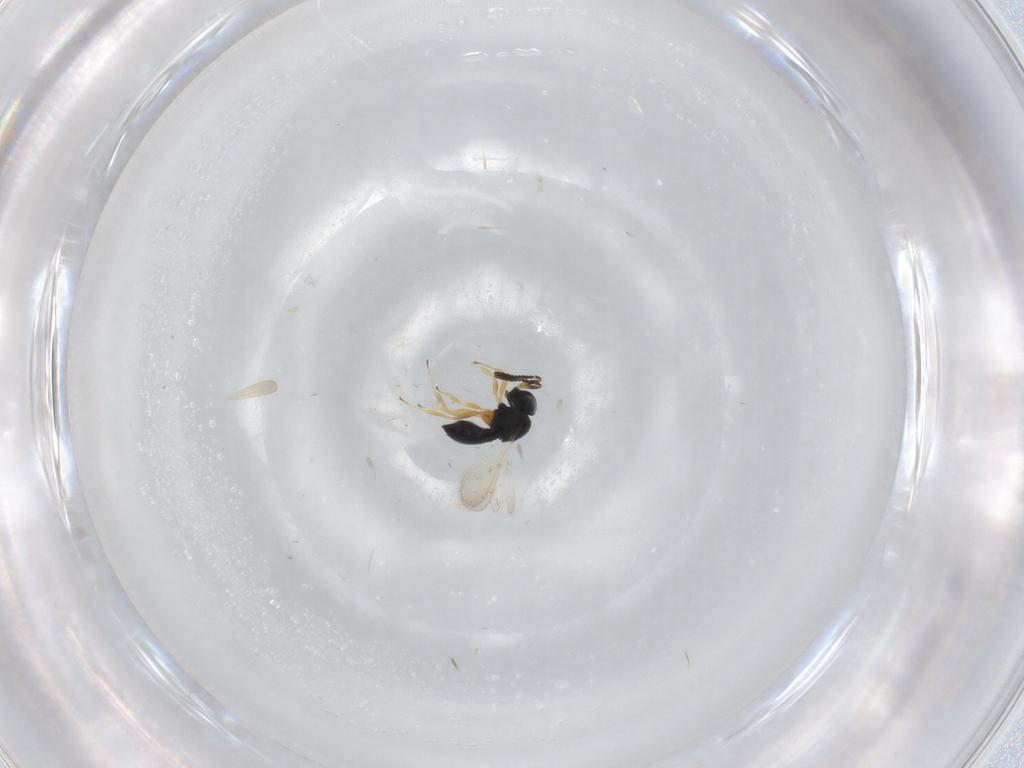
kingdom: Animalia
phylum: Arthropoda
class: Insecta
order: Hymenoptera
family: Scelionidae
